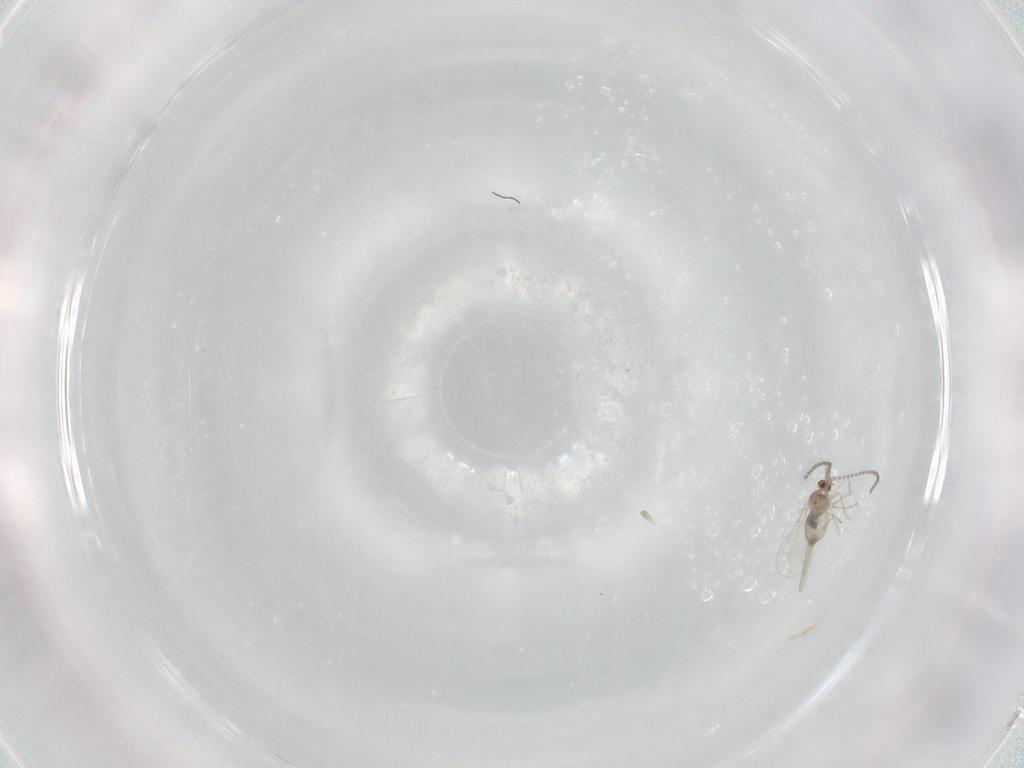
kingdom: Animalia
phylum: Arthropoda
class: Insecta
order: Diptera
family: Cecidomyiidae
